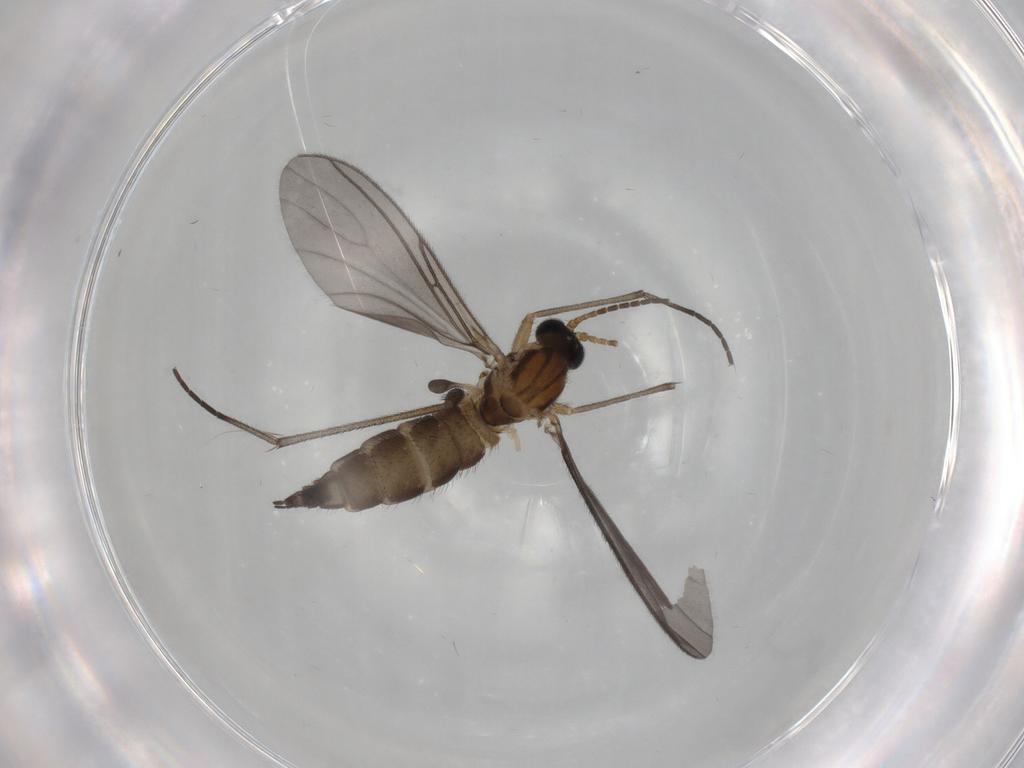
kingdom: Animalia
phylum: Arthropoda
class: Insecta
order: Diptera
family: Sciaridae
